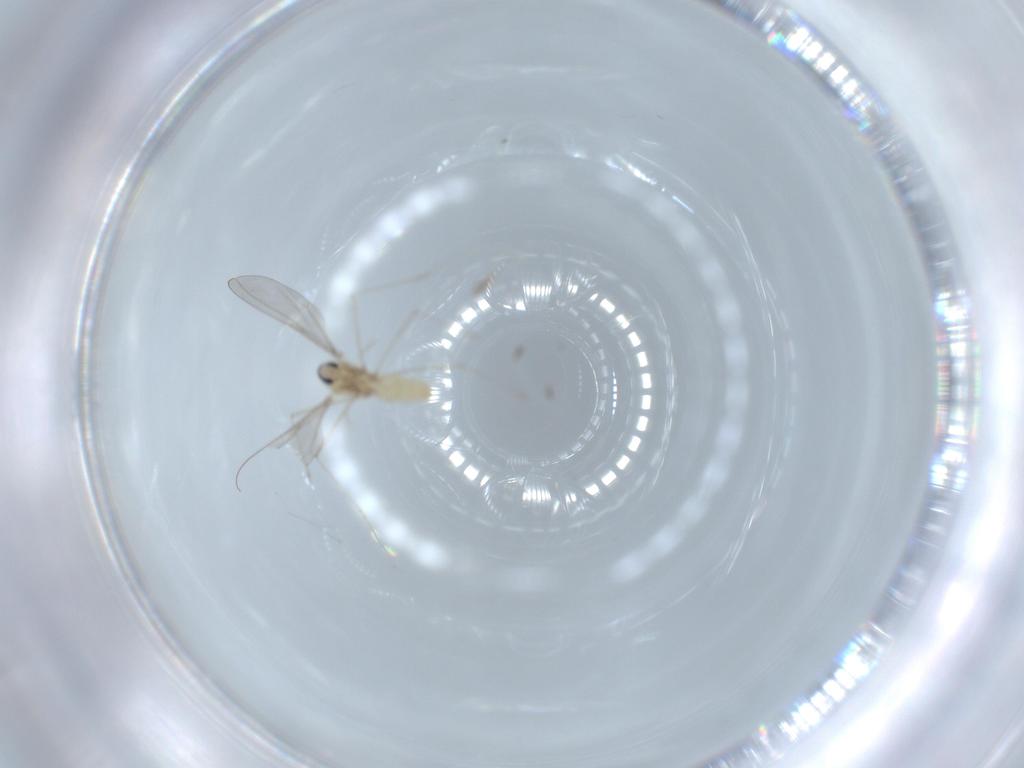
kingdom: Animalia
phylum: Arthropoda
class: Insecta
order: Diptera
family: Cecidomyiidae
